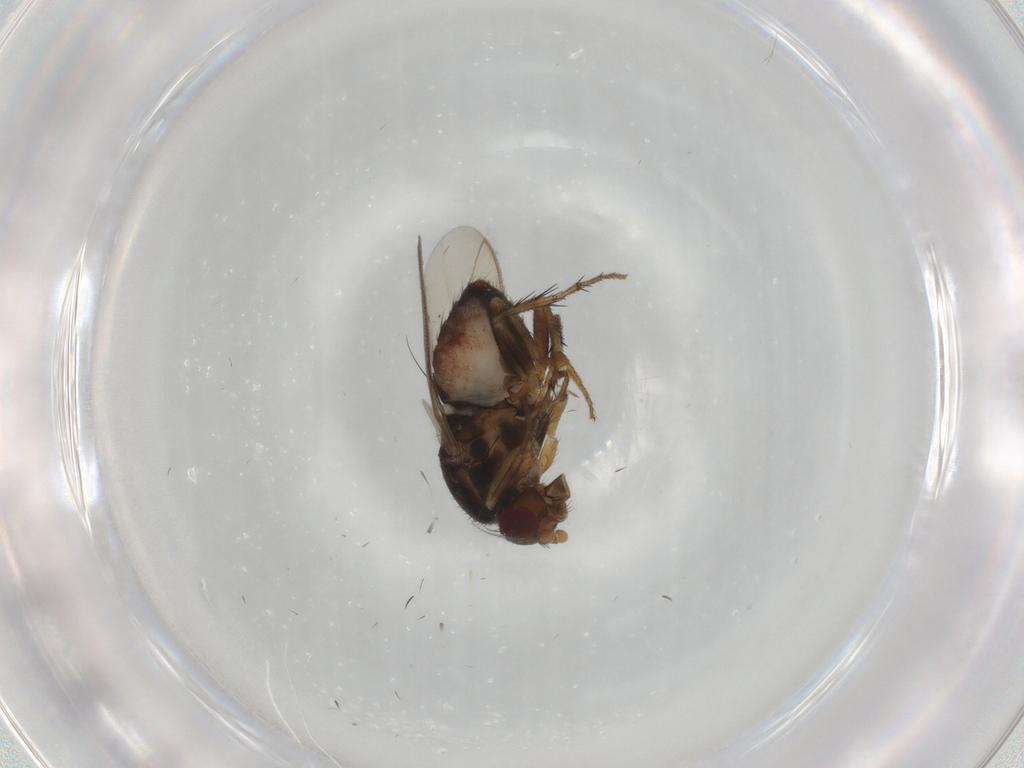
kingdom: Animalia
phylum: Arthropoda
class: Insecta
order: Diptera
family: Sphaeroceridae
